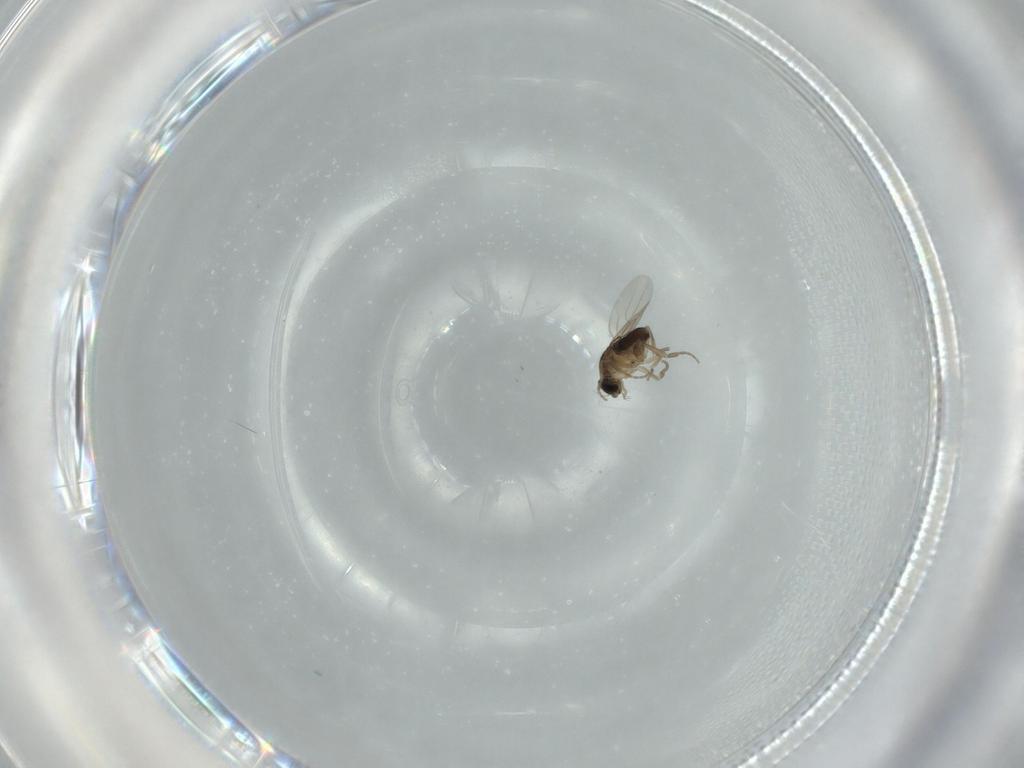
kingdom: Animalia
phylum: Arthropoda
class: Insecta
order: Diptera
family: Phoridae
